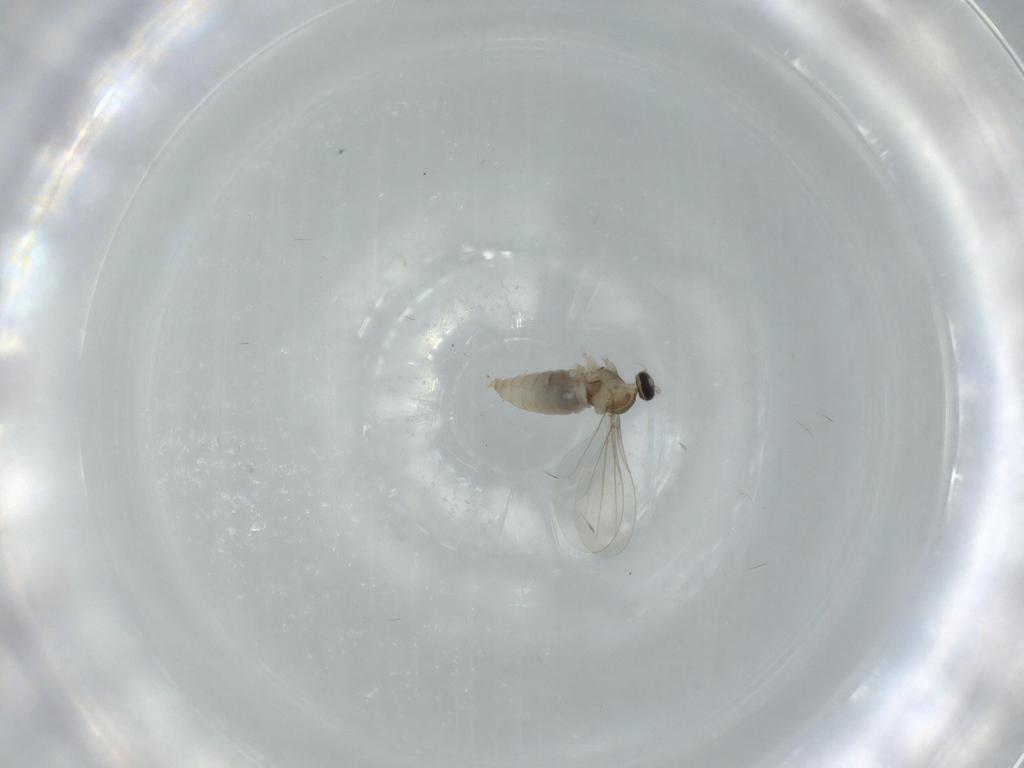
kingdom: Animalia
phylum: Arthropoda
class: Insecta
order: Diptera
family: Cecidomyiidae
